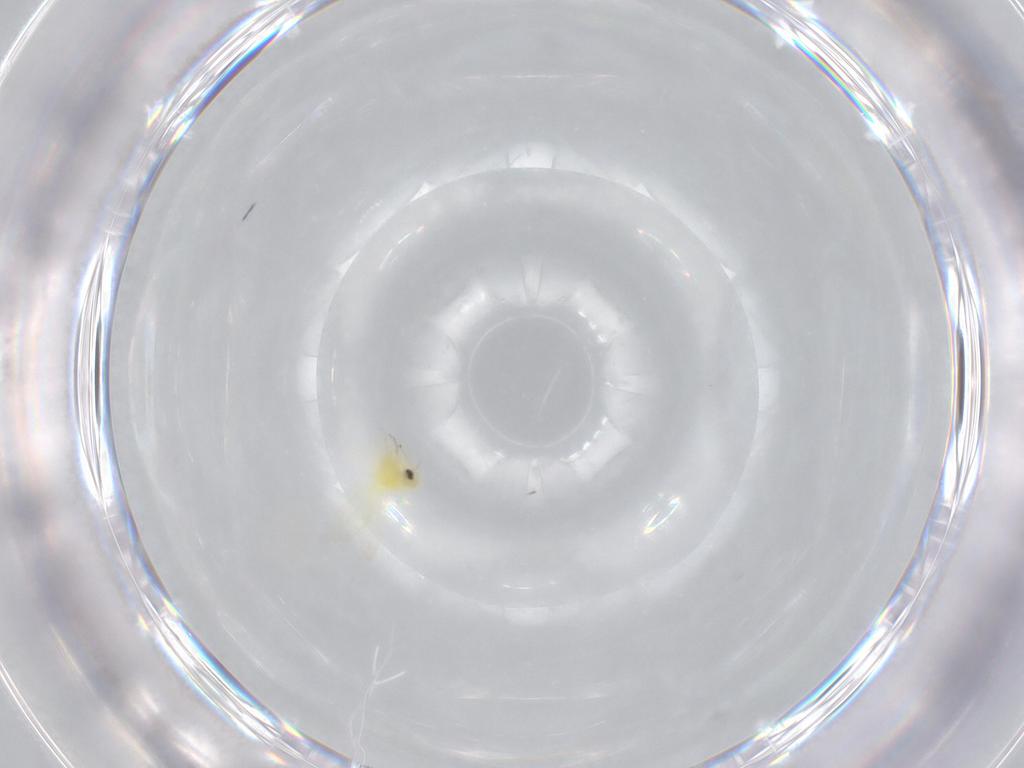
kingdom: Animalia
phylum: Arthropoda
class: Insecta
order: Hemiptera
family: Aleyrodidae
